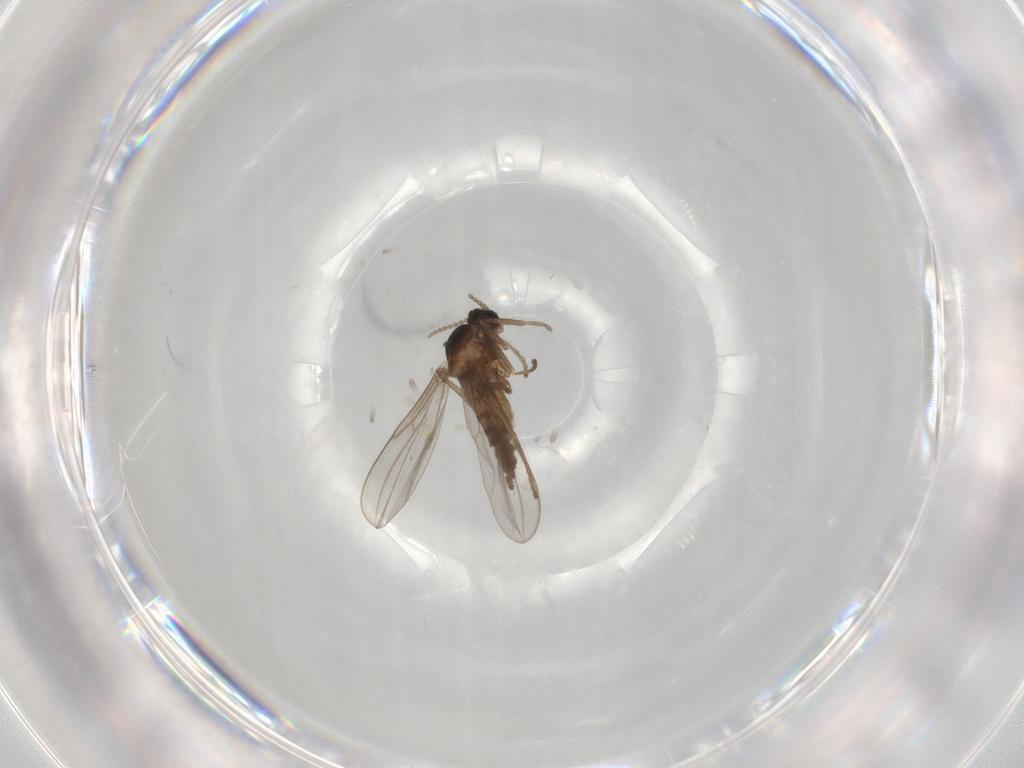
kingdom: Animalia
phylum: Arthropoda
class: Insecta
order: Diptera
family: Cecidomyiidae
